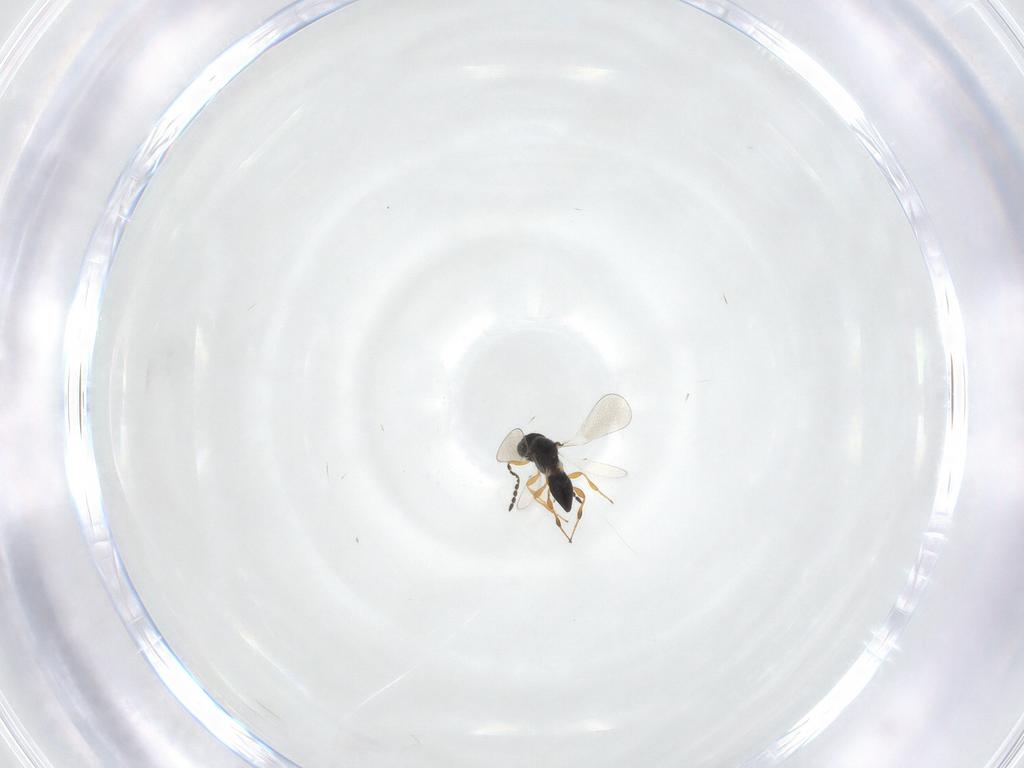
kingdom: Animalia
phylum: Arthropoda
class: Insecta
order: Hymenoptera
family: Platygastridae
